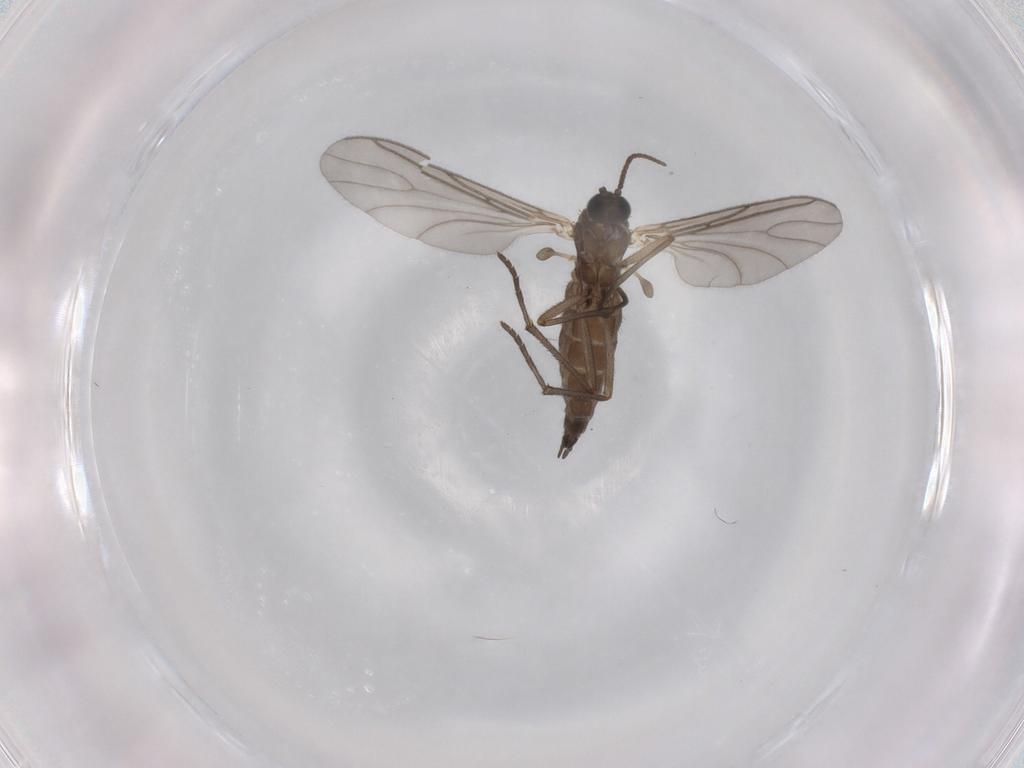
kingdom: Animalia
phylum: Arthropoda
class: Insecta
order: Diptera
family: Sciaridae
